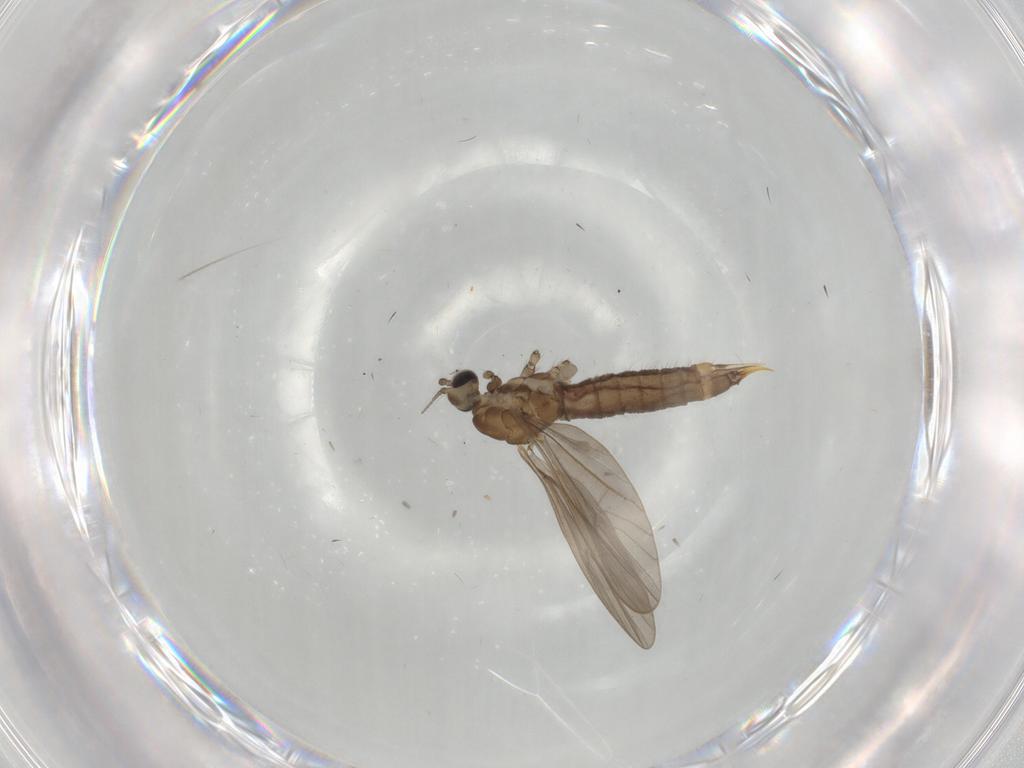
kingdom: Animalia
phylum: Arthropoda
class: Insecta
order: Diptera
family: Limoniidae
